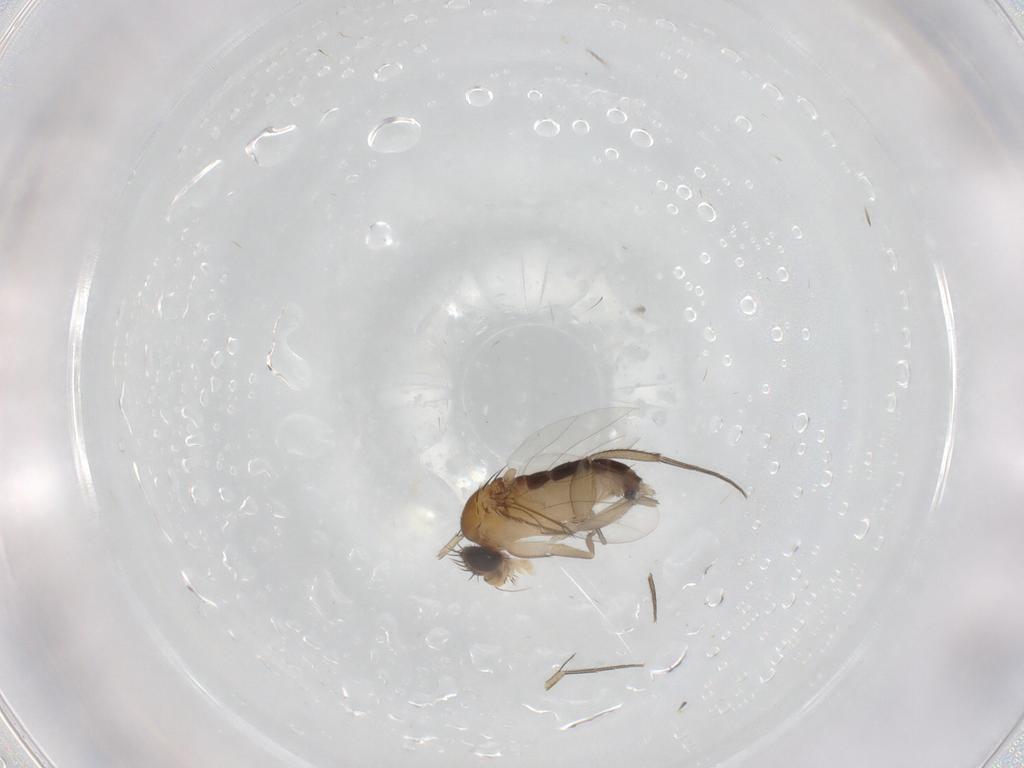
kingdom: Animalia
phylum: Arthropoda
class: Insecta
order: Diptera
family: Phoridae
